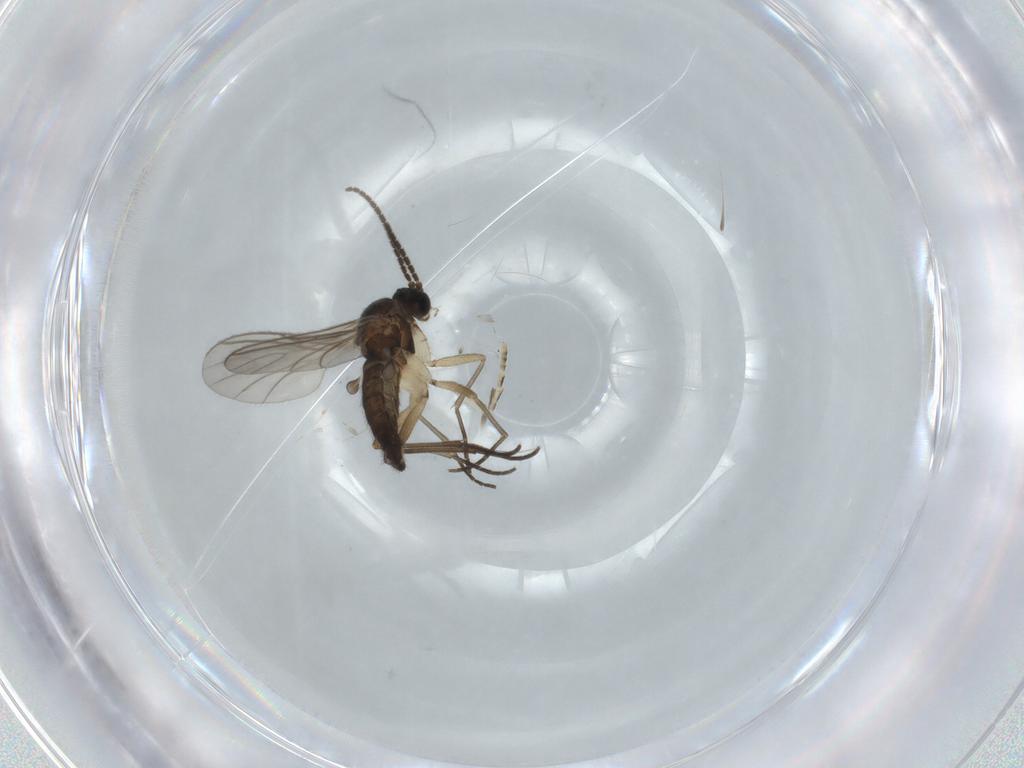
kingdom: Animalia
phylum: Arthropoda
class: Insecta
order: Diptera
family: Sciaridae
